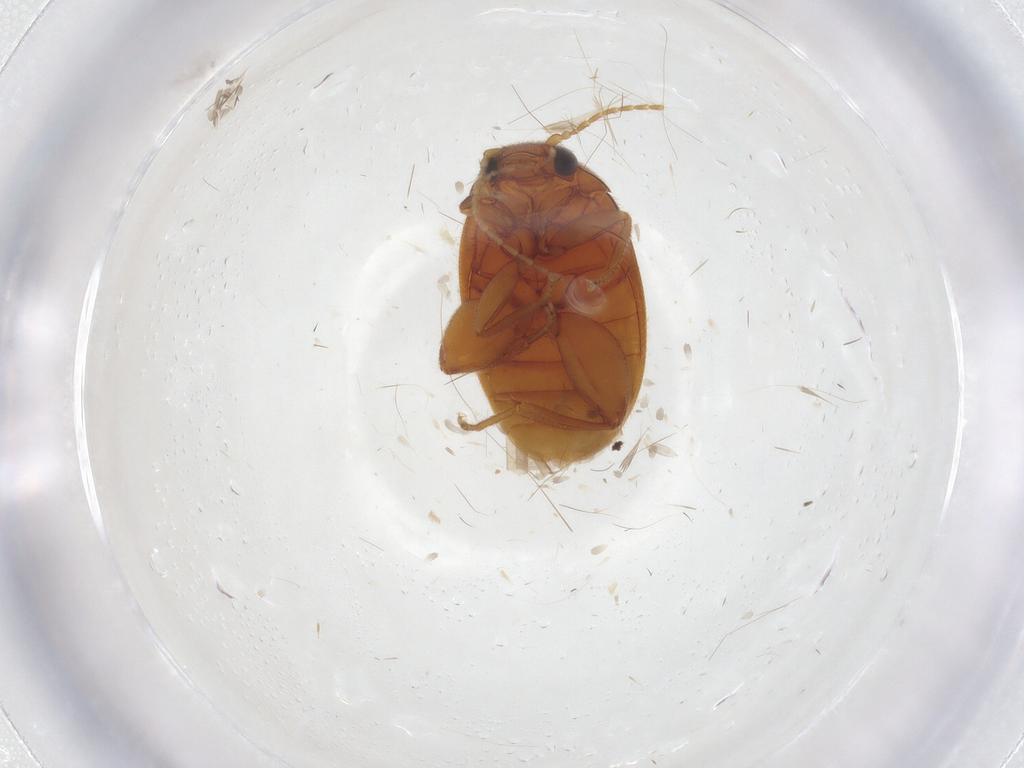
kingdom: Animalia
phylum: Arthropoda
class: Insecta
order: Coleoptera
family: Scirtidae
